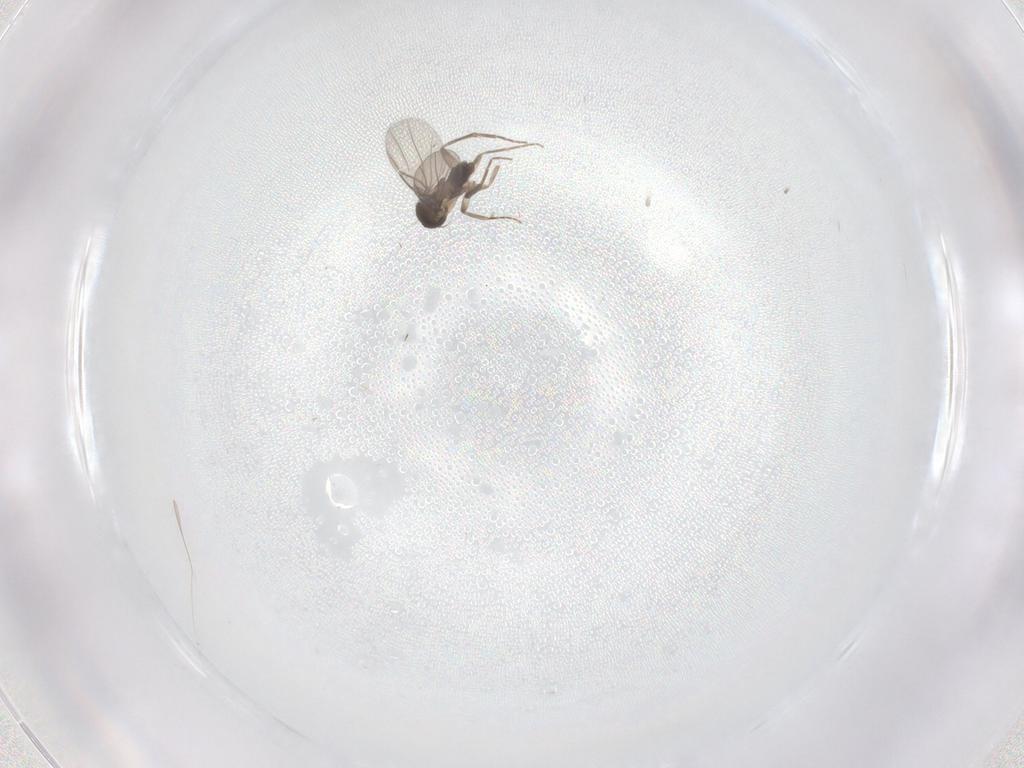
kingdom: Animalia
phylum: Arthropoda
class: Insecta
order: Diptera
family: Phoridae
